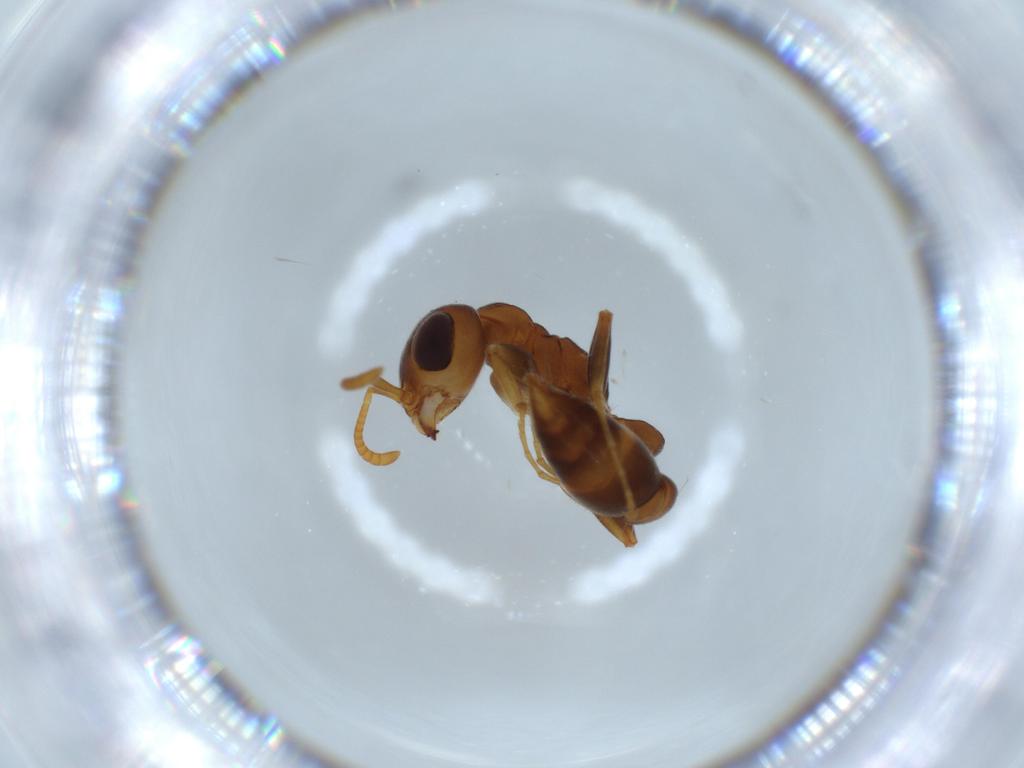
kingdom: Animalia
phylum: Arthropoda
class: Insecta
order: Hymenoptera
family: Formicidae
